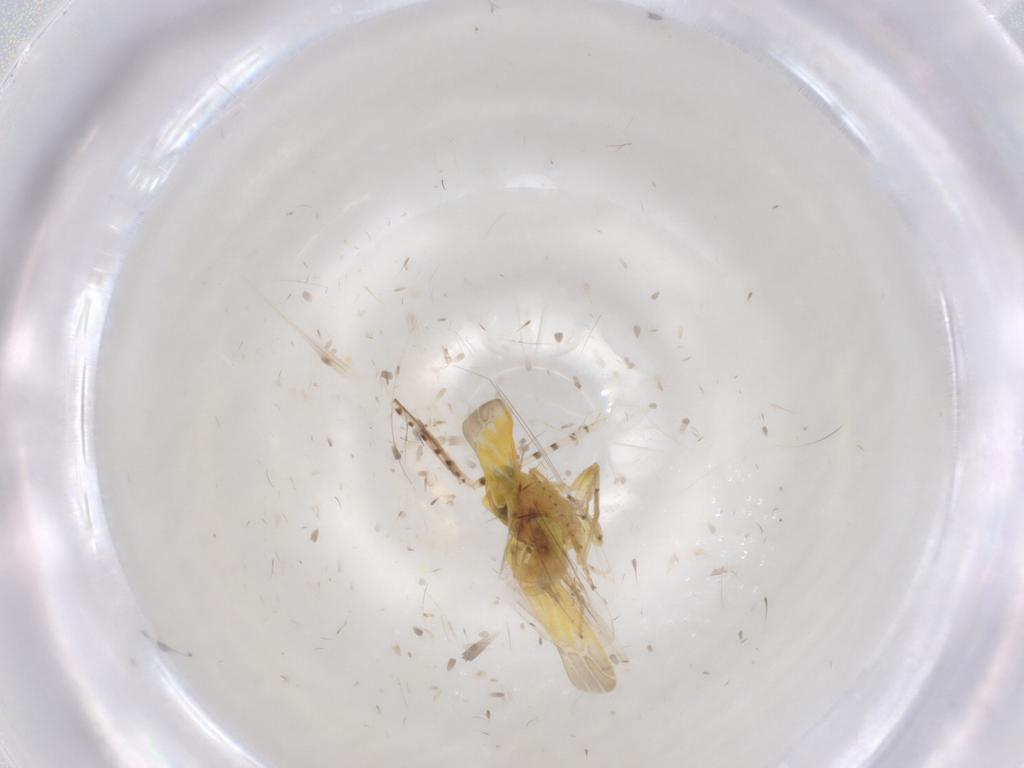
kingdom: Animalia
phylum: Arthropoda
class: Insecta
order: Hemiptera
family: Cicadellidae
